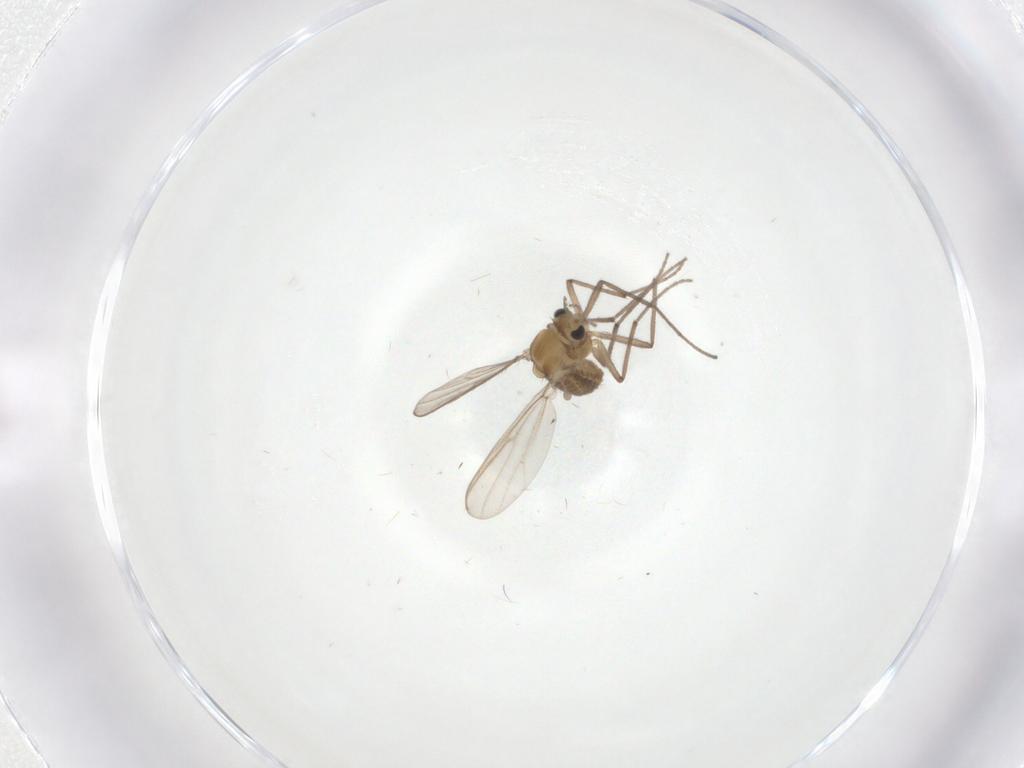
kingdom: Animalia
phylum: Arthropoda
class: Insecta
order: Diptera
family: Chironomidae
